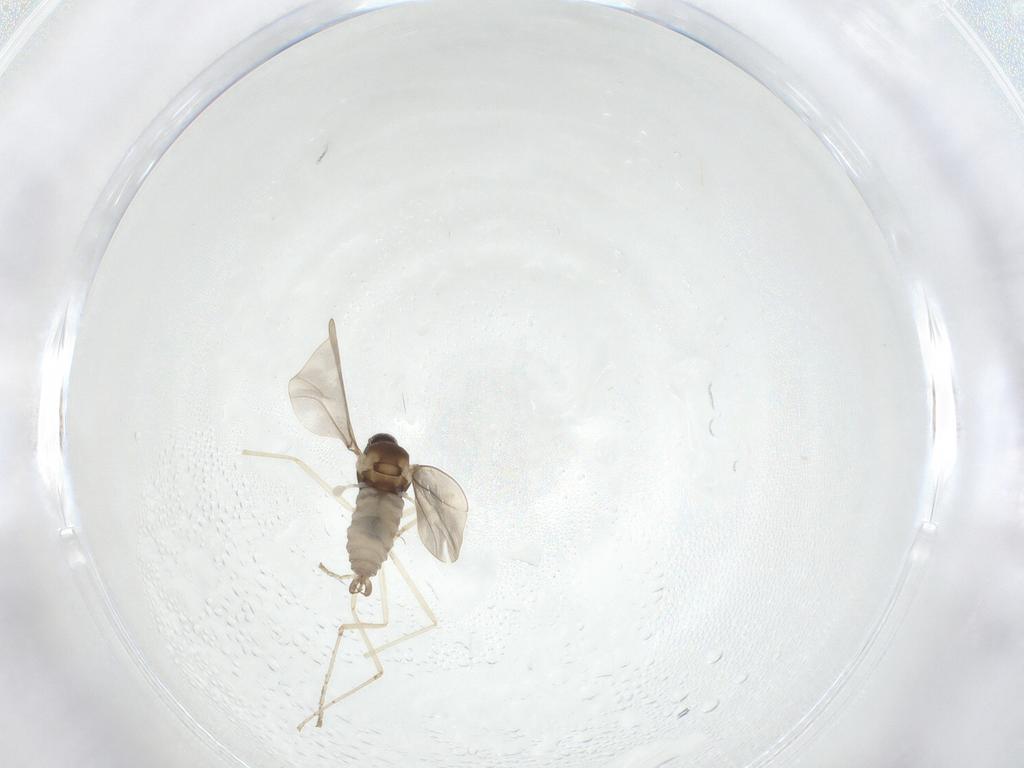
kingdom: Animalia
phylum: Arthropoda
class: Insecta
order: Diptera
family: Cecidomyiidae
